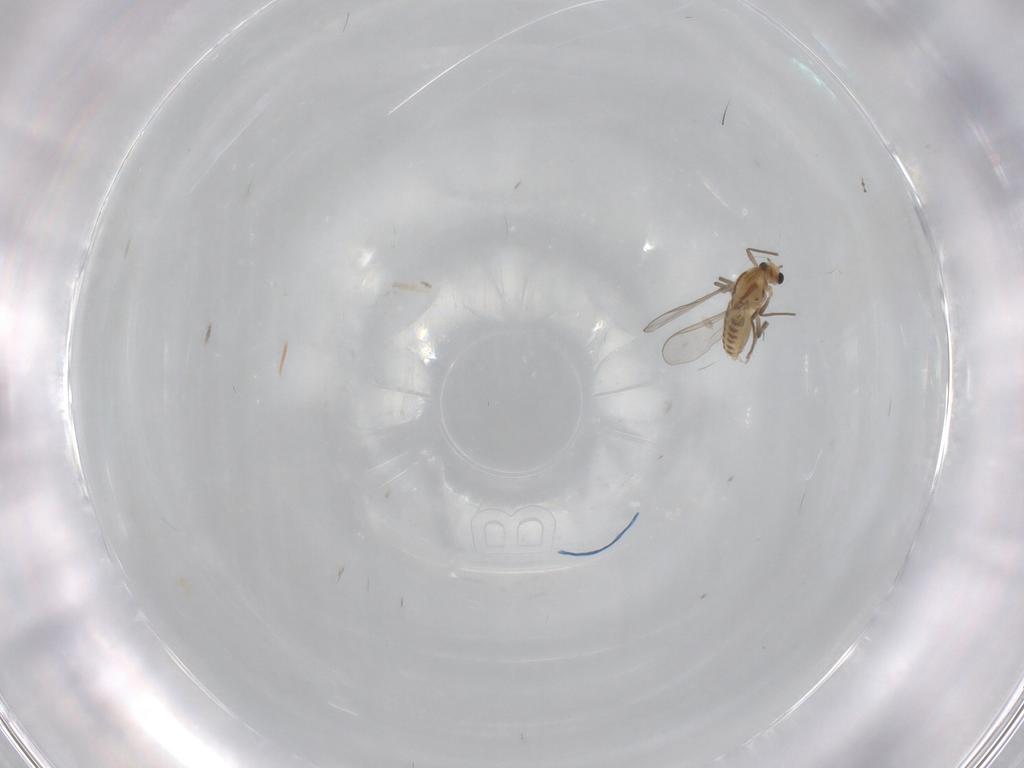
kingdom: Animalia
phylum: Arthropoda
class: Insecta
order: Diptera
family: Chironomidae
